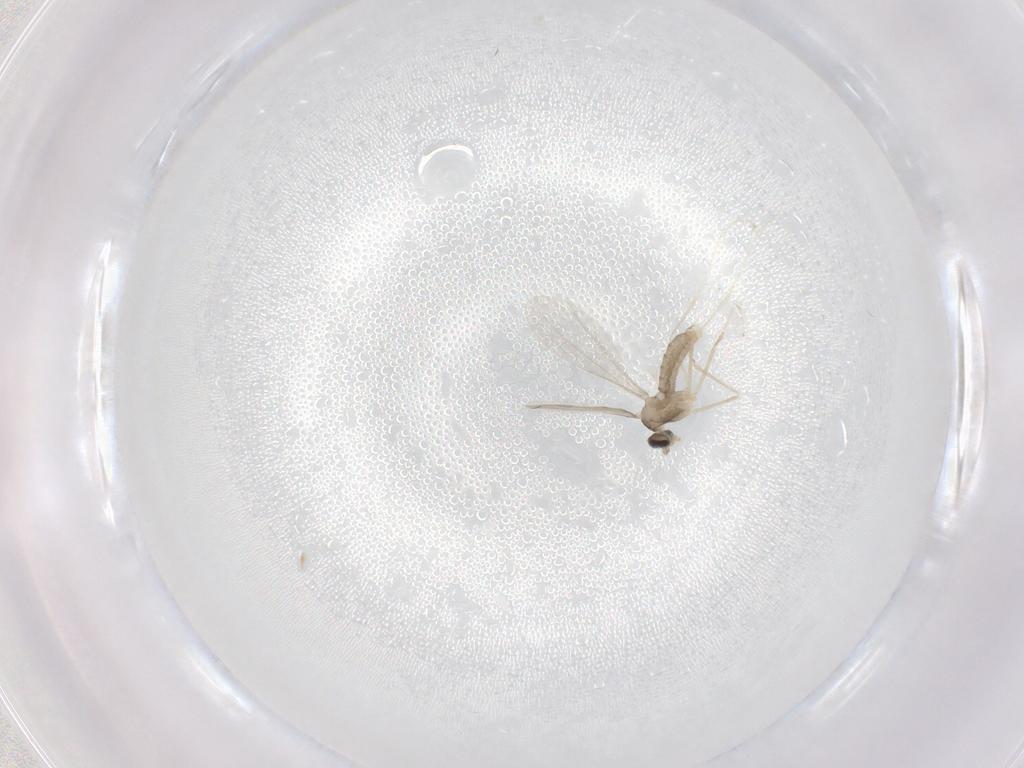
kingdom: Animalia
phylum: Arthropoda
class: Insecta
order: Diptera
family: Cecidomyiidae
